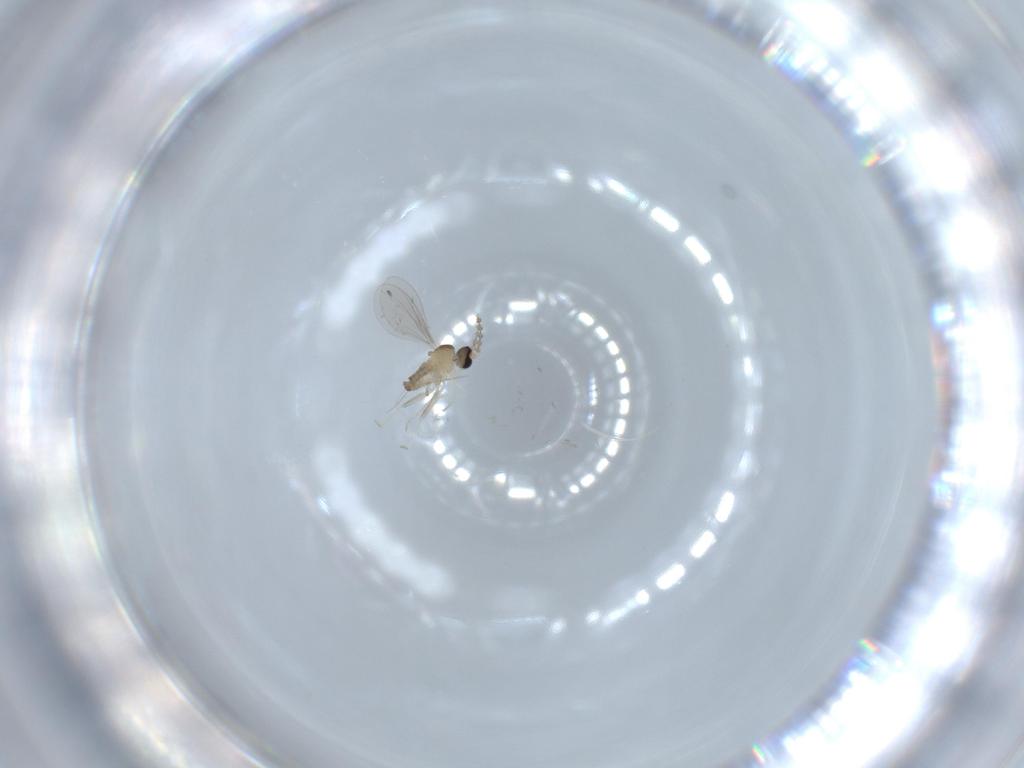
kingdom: Animalia
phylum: Arthropoda
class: Insecta
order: Diptera
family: Cecidomyiidae
